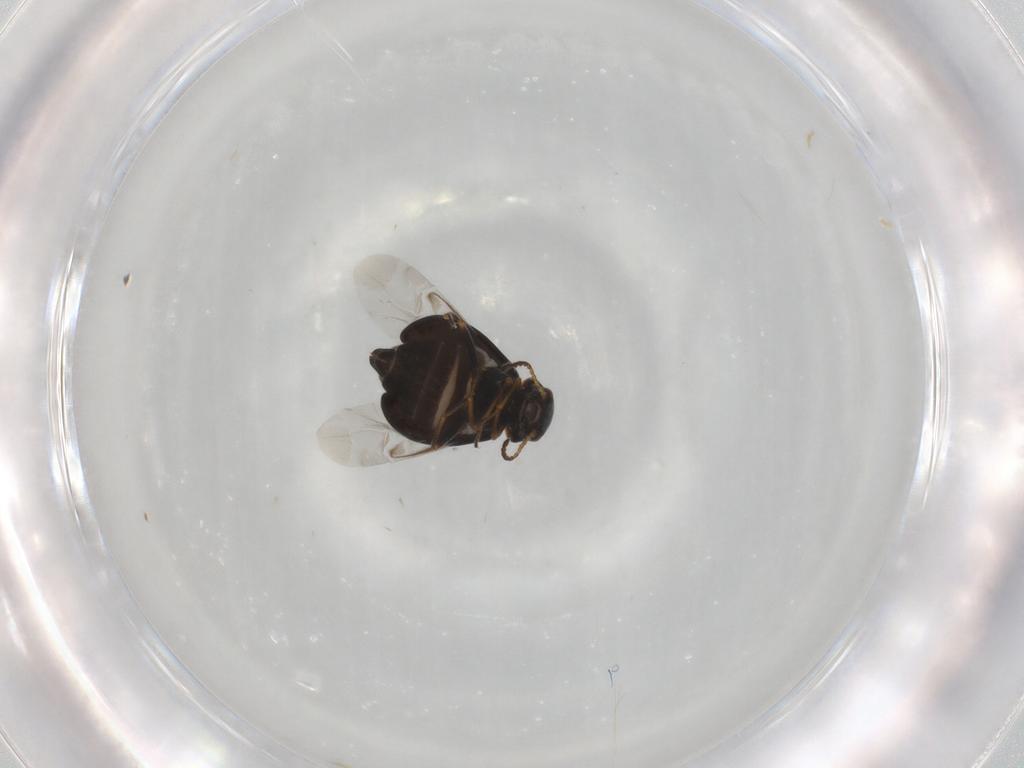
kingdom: Animalia
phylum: Arthropoda
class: Insecta
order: Coleoptera
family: Melyridae
